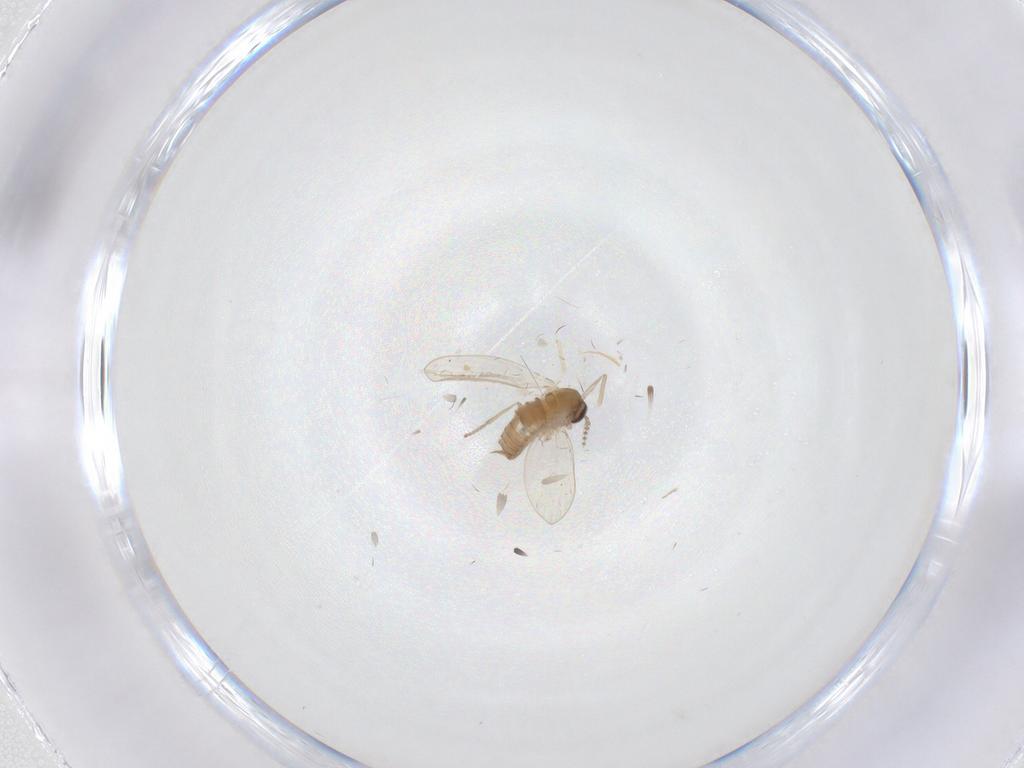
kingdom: Animalia
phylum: Arthropoda
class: Insecta
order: Diptera
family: Psychodidae
